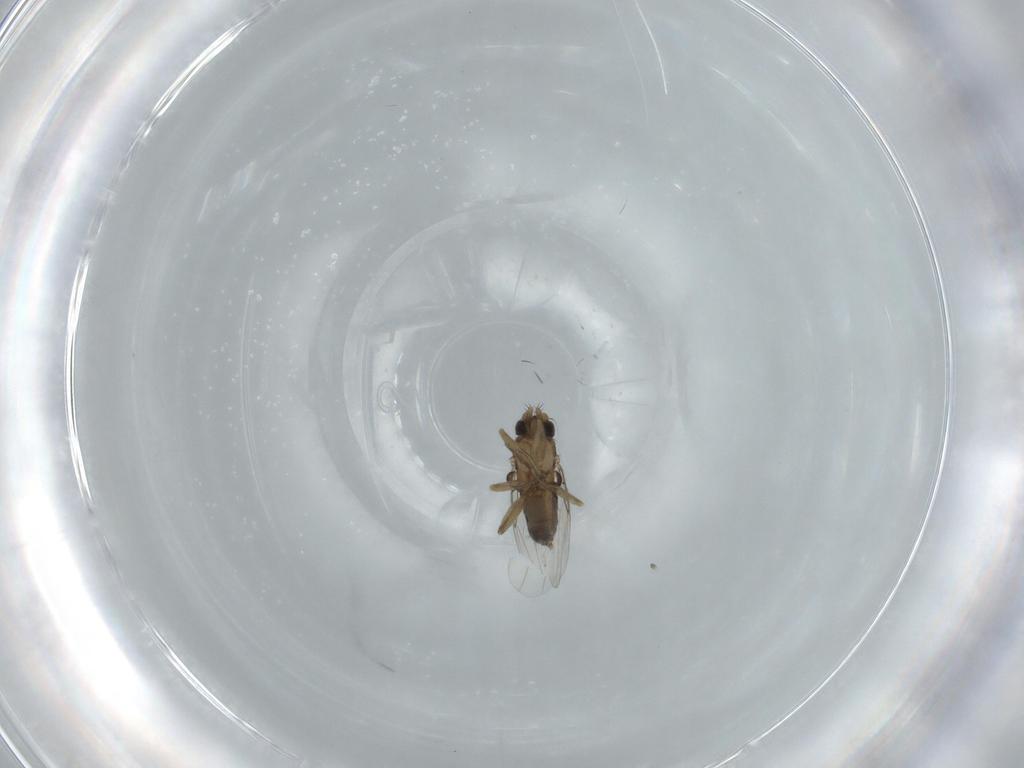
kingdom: Animalia
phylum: Arthropoda
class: Insecta
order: Diptera
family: Phoridae
